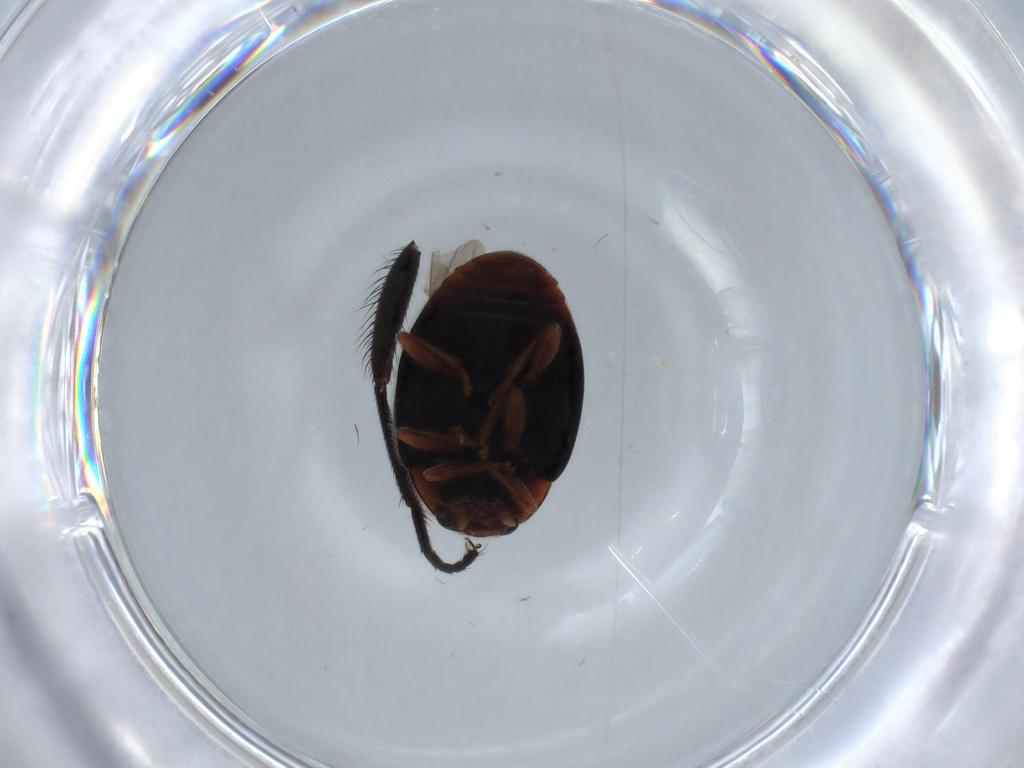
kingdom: Animalia
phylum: Arthropoda
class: Insecta
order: Coleoptera
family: Coccinellidae
